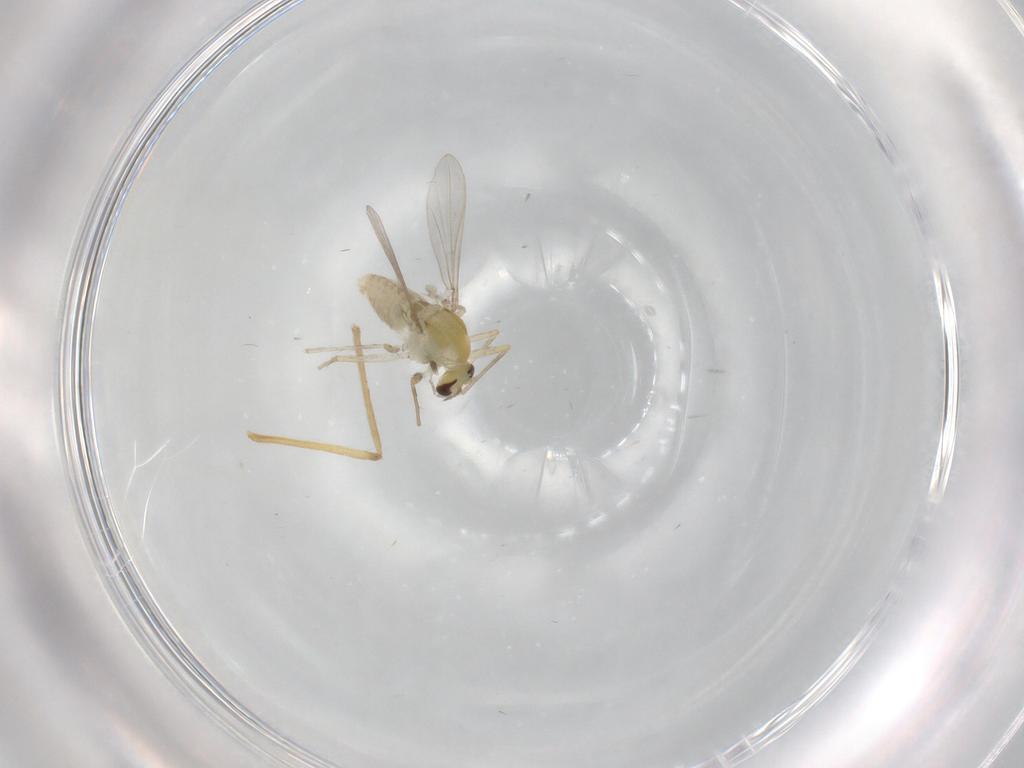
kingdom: Animalia
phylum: Arthropoda
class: Insecta
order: Diptera
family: Chironomidae
